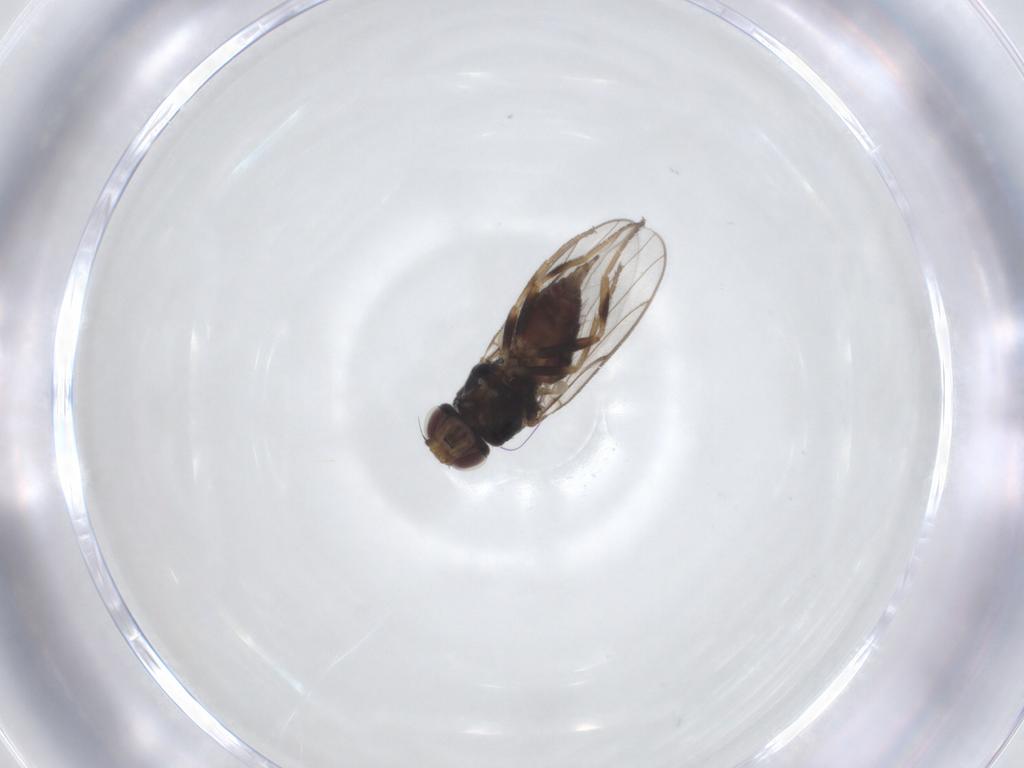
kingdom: Animalia
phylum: Arthropoda
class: Insecta
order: Diptera
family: Chloropidae
